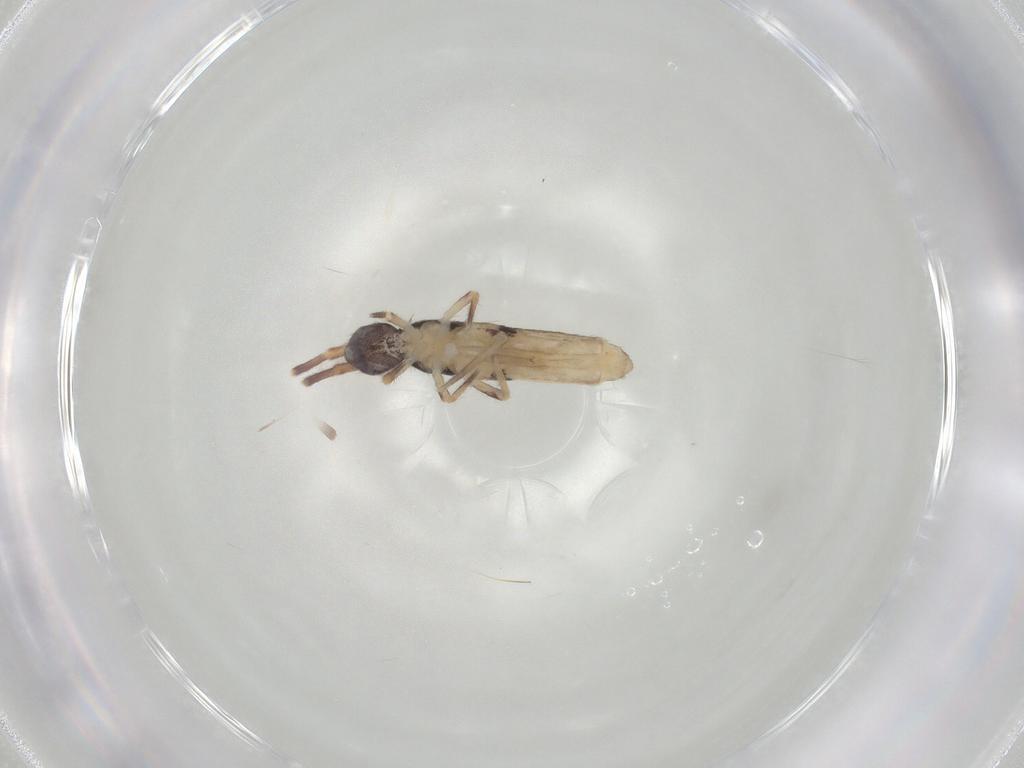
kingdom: Animalia
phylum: Arthropoda
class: Collembola
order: Entomobryomorpha
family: Entomobryidae
